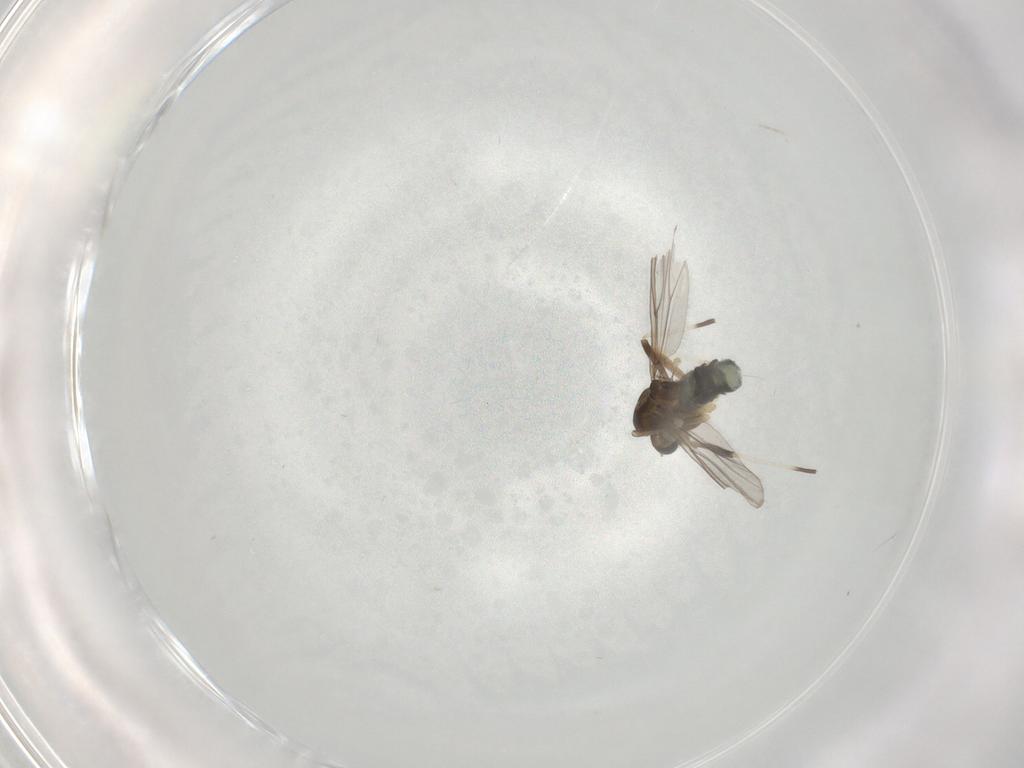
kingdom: Animalia
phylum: Arthropoda
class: Insecta
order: Diptera
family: Chironomidae
